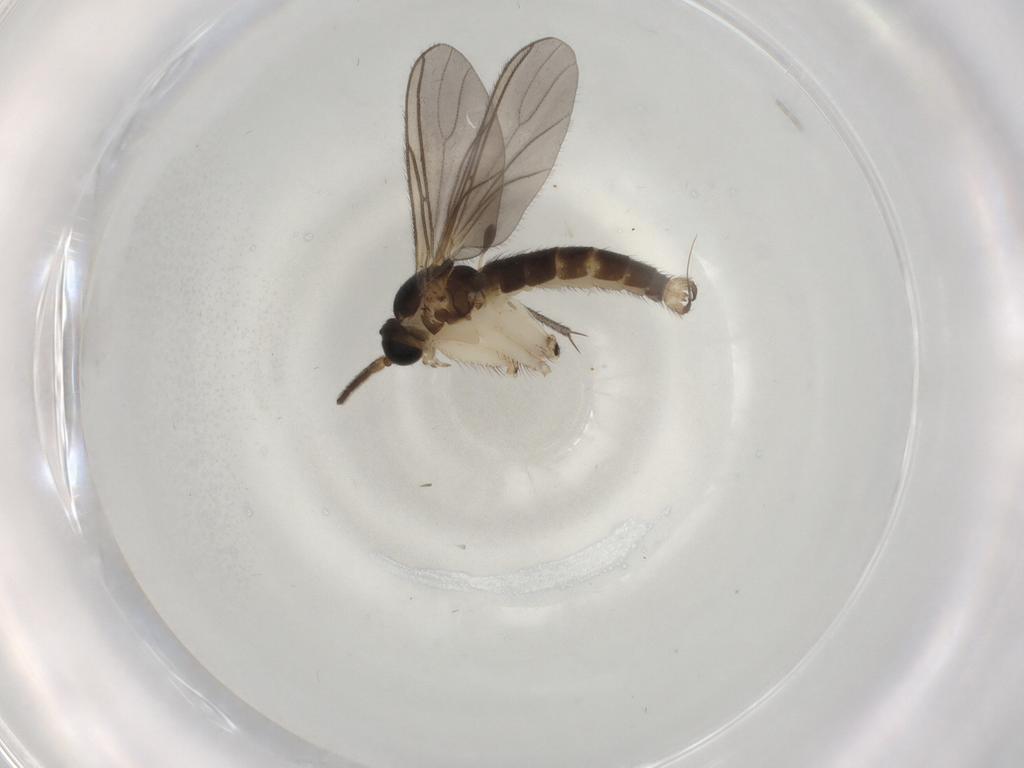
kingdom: Animalia
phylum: Arthropoda
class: Insecta
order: Diptera
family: Sciaridae
